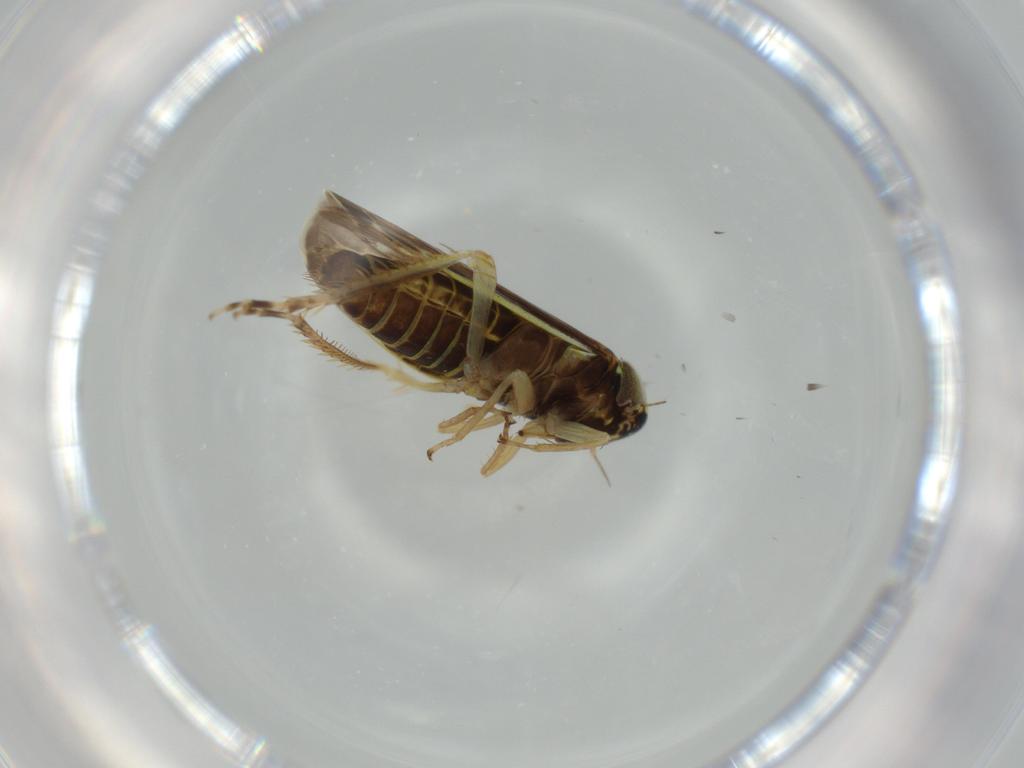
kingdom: Animalia
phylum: Arthropoda
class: Insecta
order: Hemiptera
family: Cicadellidae
